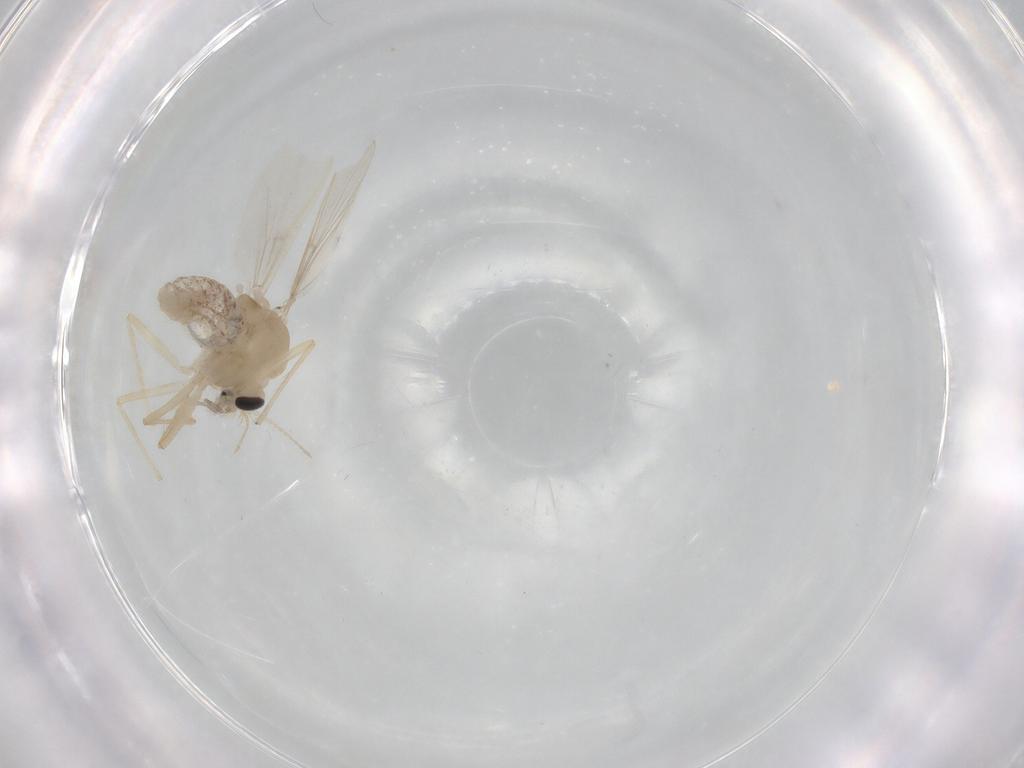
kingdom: Animalia
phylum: Arthropoda
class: Insecta
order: Diptera
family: Chironomidae
